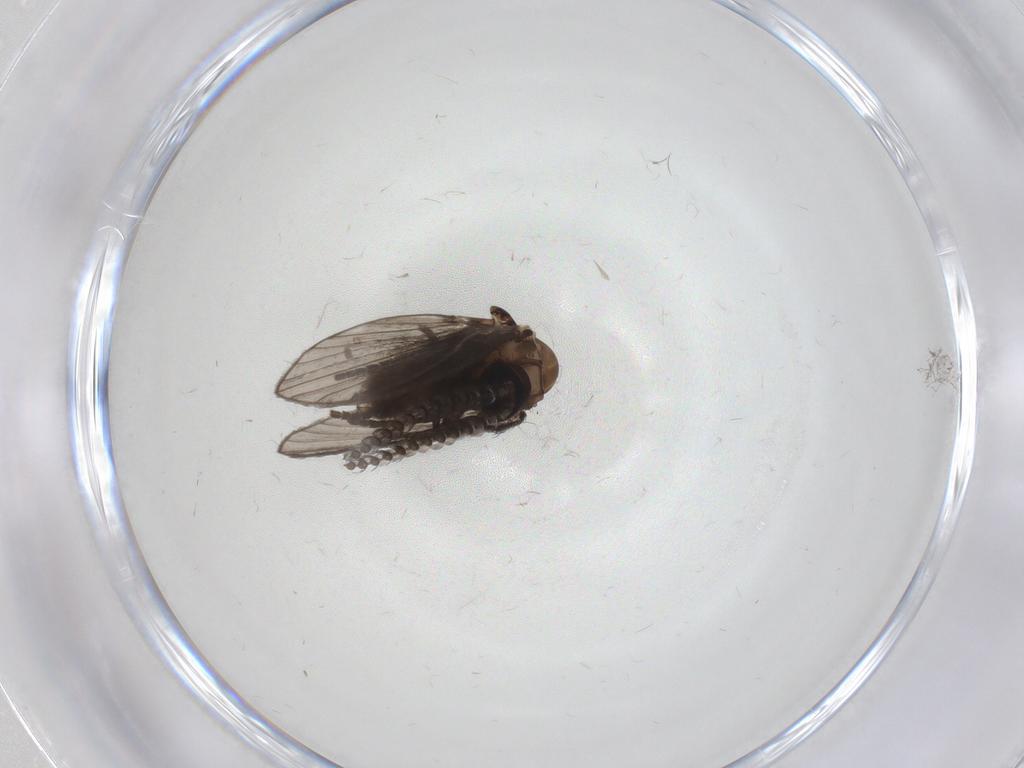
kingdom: Animalia
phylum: Arthropoda
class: Insecta
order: Diptera
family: Psychodidae
